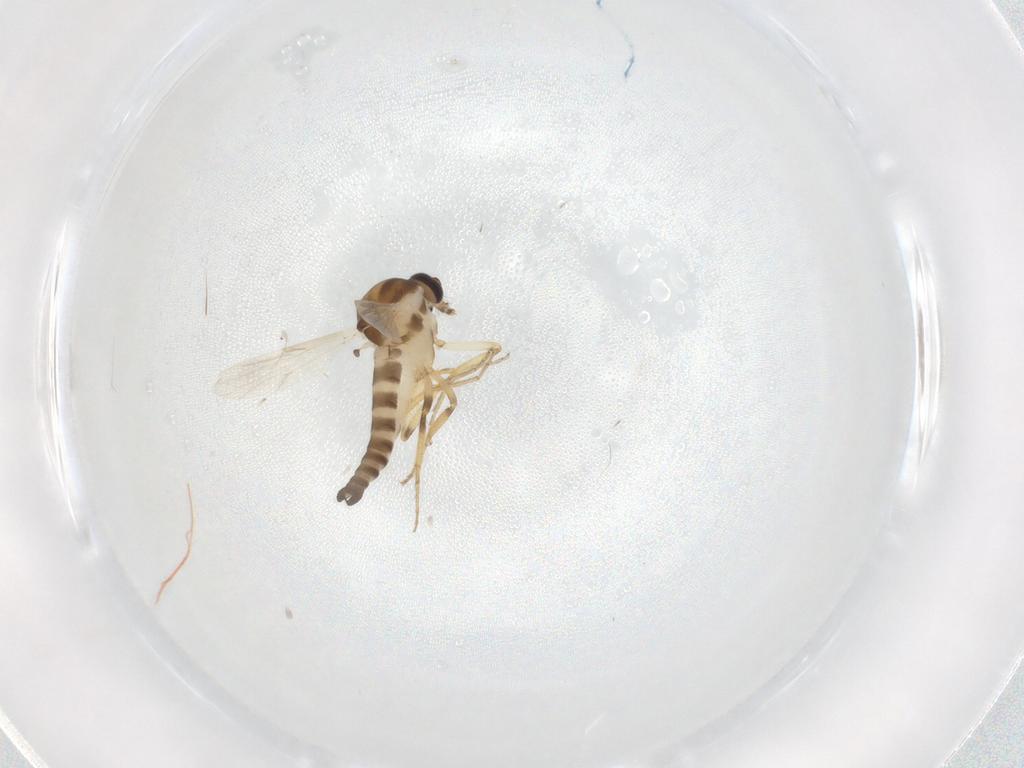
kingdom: Animalia
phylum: Arthropoda
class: Insecta
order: Diptera
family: Ceratopogonidae
